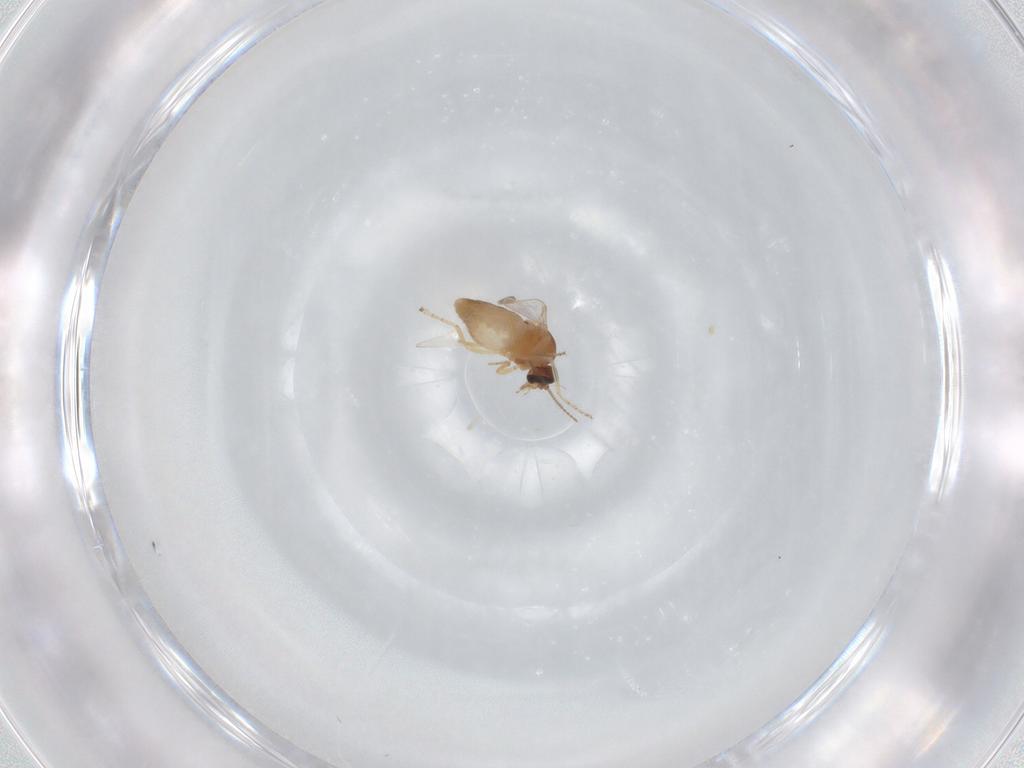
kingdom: Animalia
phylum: Arthropoda
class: Insecta
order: Diptera
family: Ceratopogonidae
